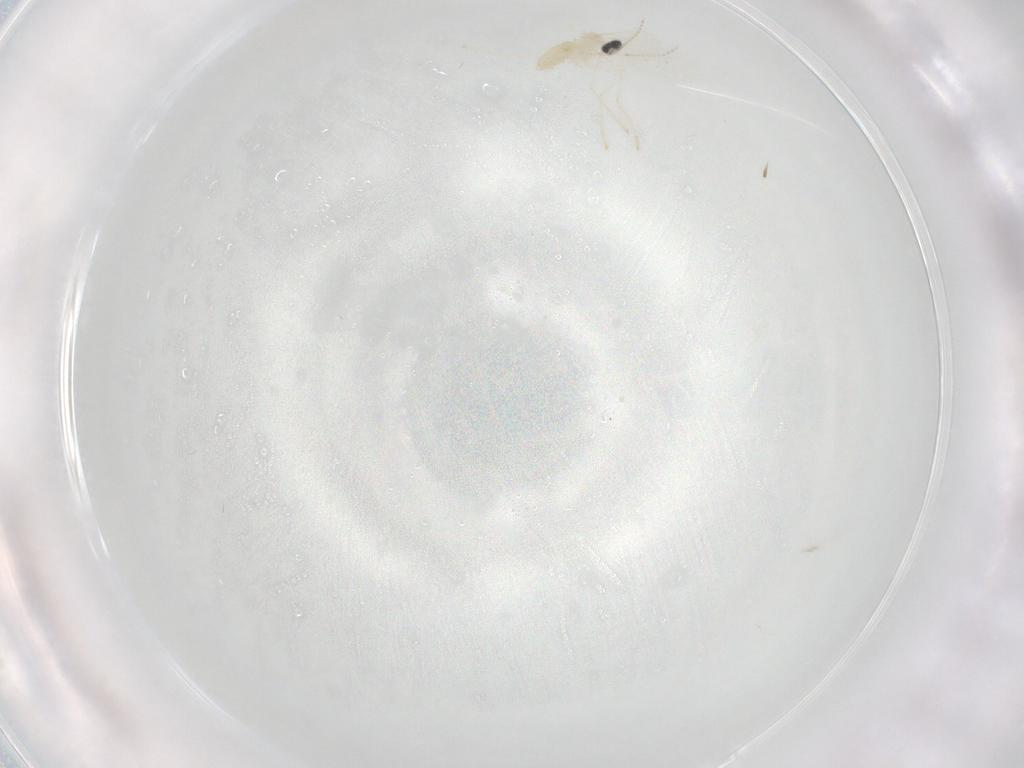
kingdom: Animalia
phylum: Arthropoda
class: Insecta
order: Diptera
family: Cecidomyiidae
